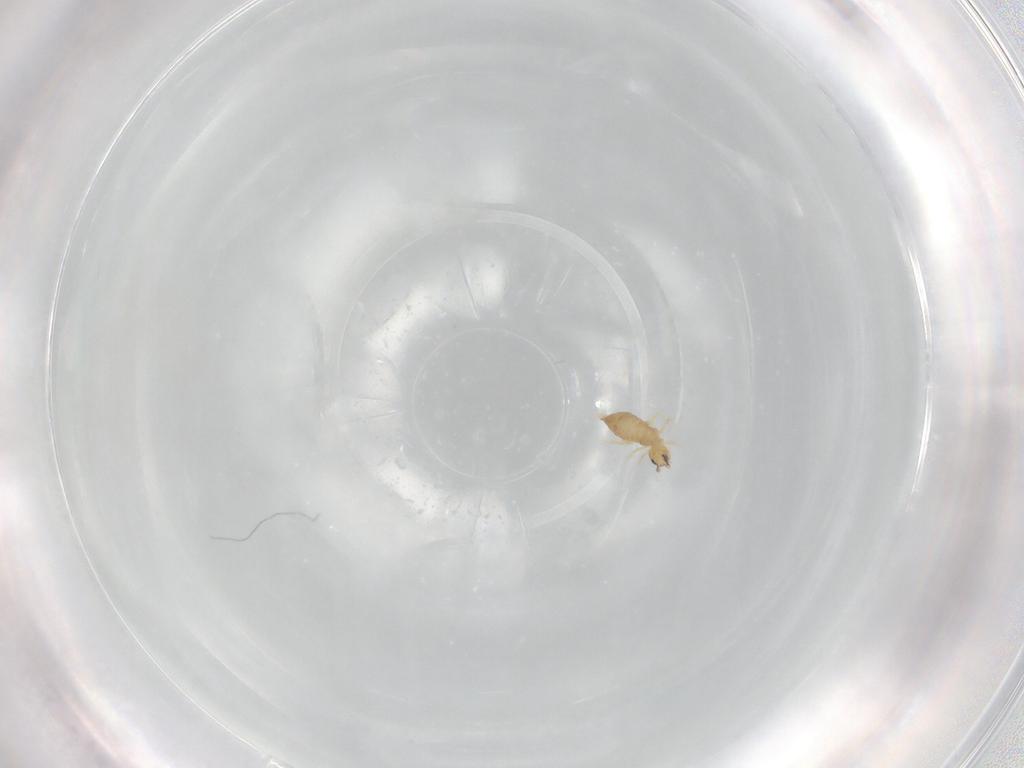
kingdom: Animalia
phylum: Arthropoda
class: Collembola
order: Entomobryomorpha
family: Entomobryidae
